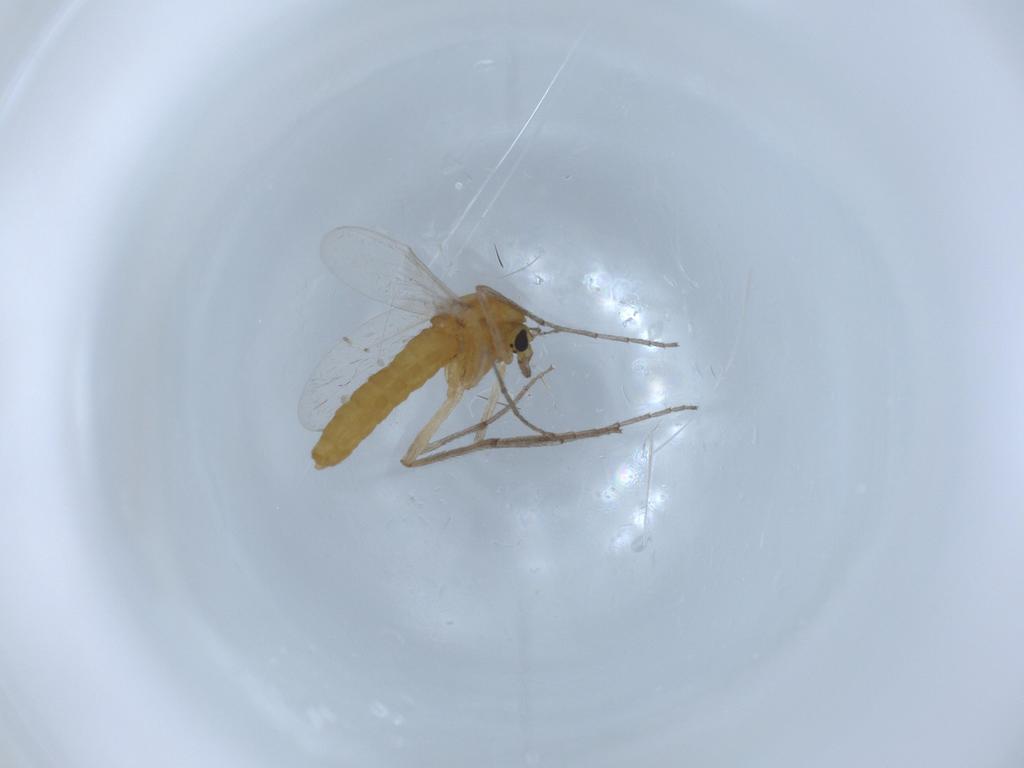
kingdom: Animalia
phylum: Arthropoda
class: Insecta
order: Diptera
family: Chironomidae
